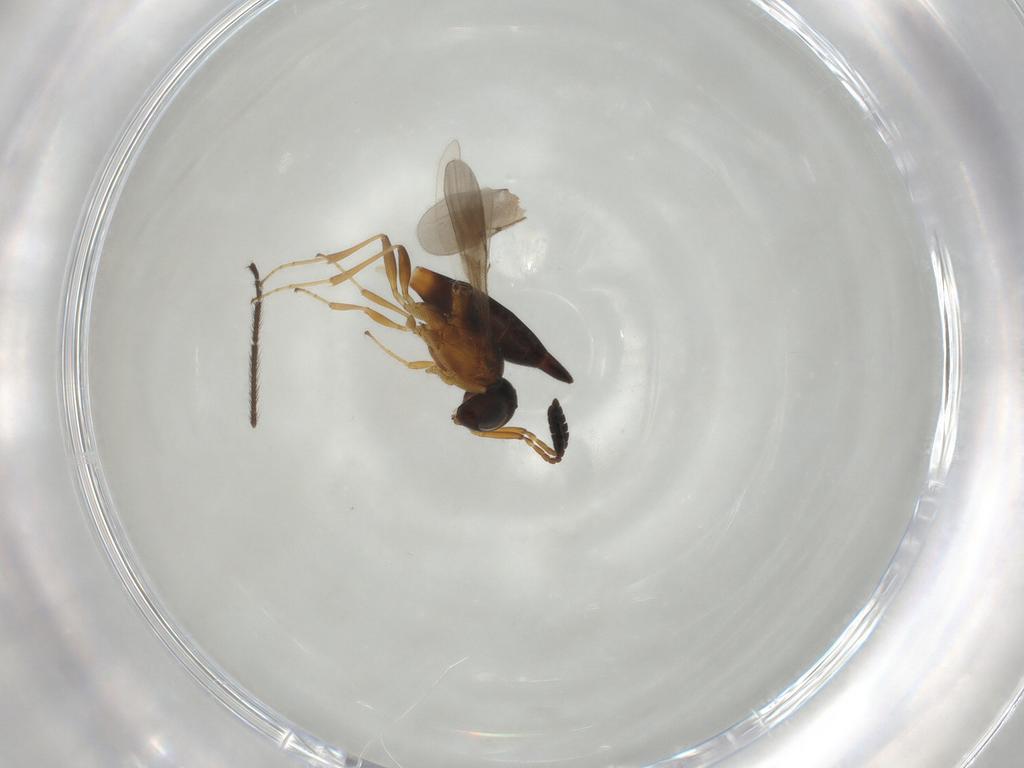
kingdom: Animalia
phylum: Arthropoda
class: Insecta
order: Hymenoptera
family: Scelionidae
